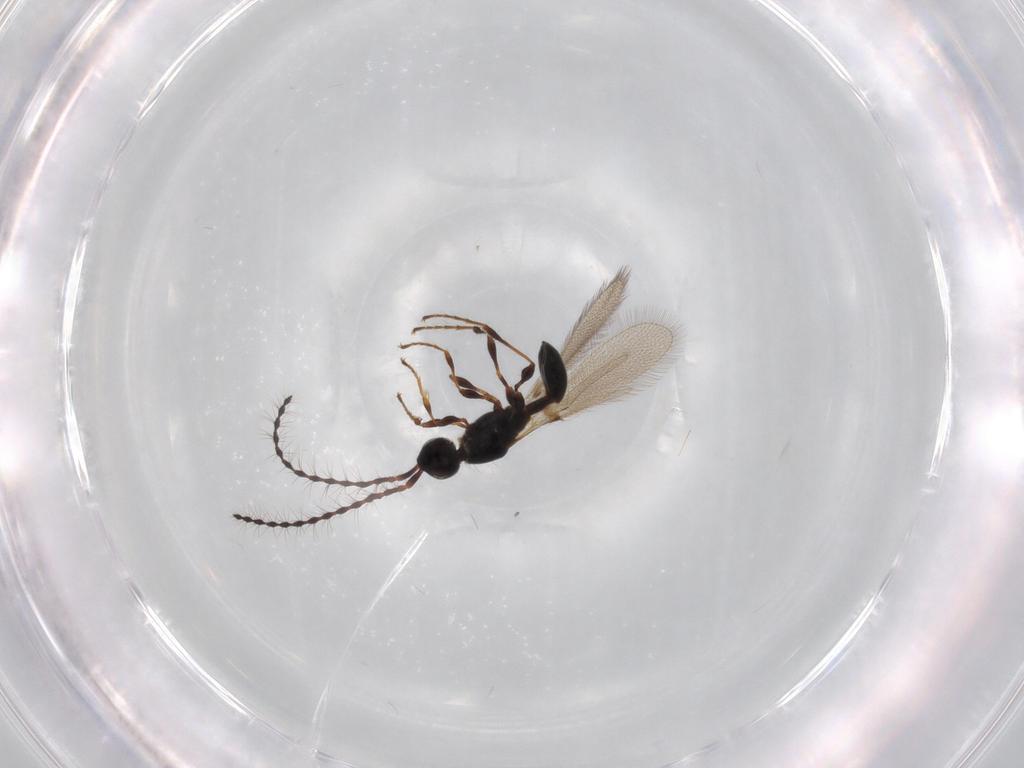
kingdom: Animalia
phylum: Arthropoda
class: Insecta
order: Hymenoptera
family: Diapriidae
